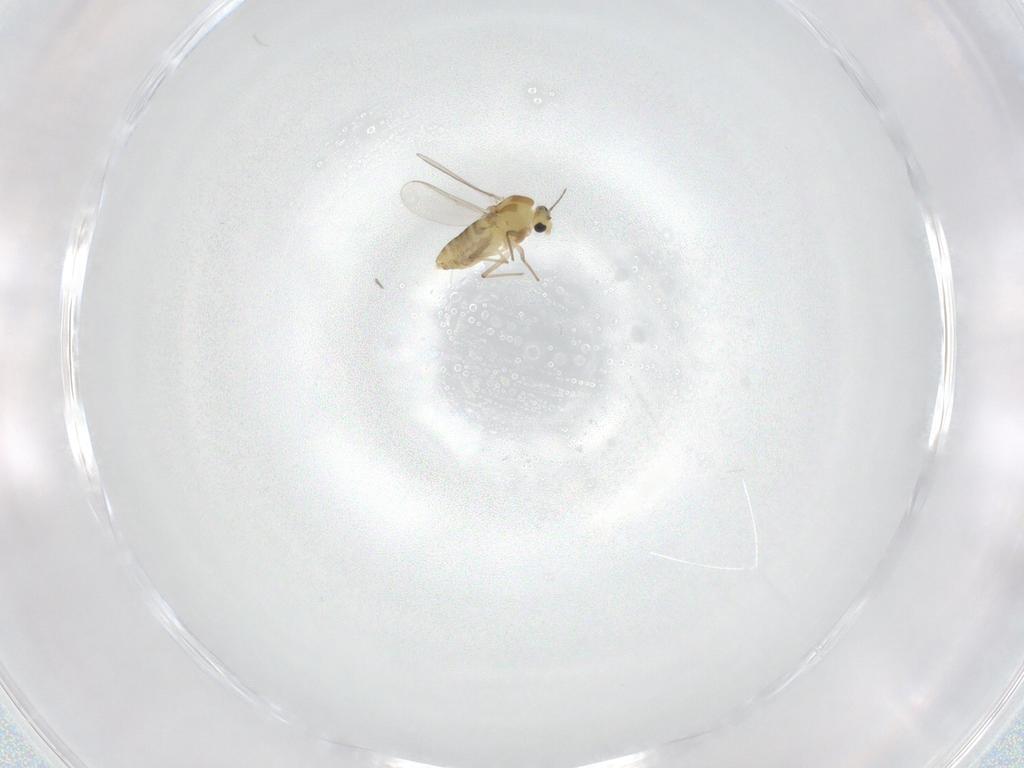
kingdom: Animalia
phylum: Arthropoda
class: Insecta
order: Diptera
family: Chironomidae
